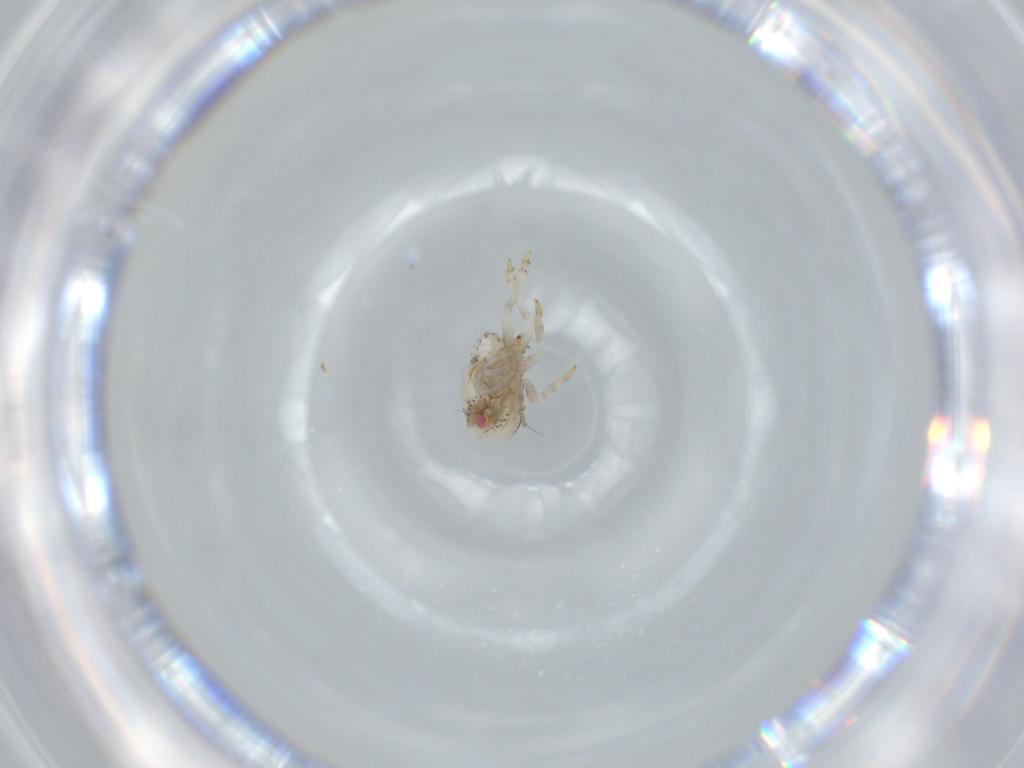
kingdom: Animalia
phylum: Arthropoda
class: Insecta
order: Hemiptera
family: Acanaloniidae
